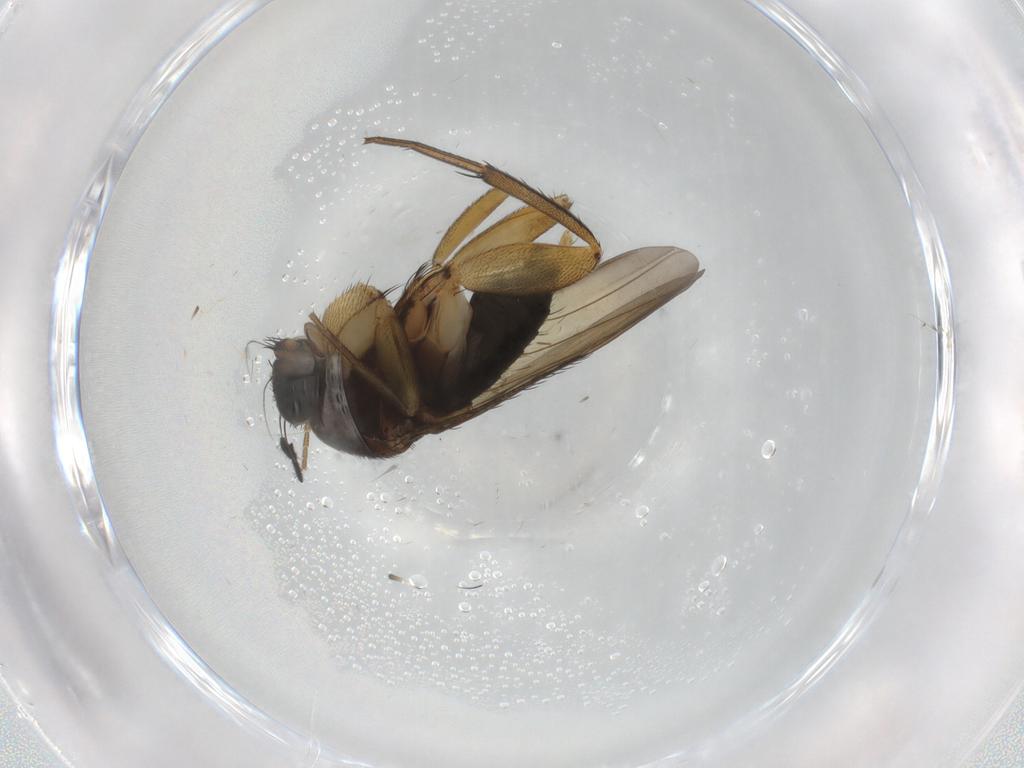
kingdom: Animalia
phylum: Arthropoda
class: Insecta
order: Diptera
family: Phoridae
